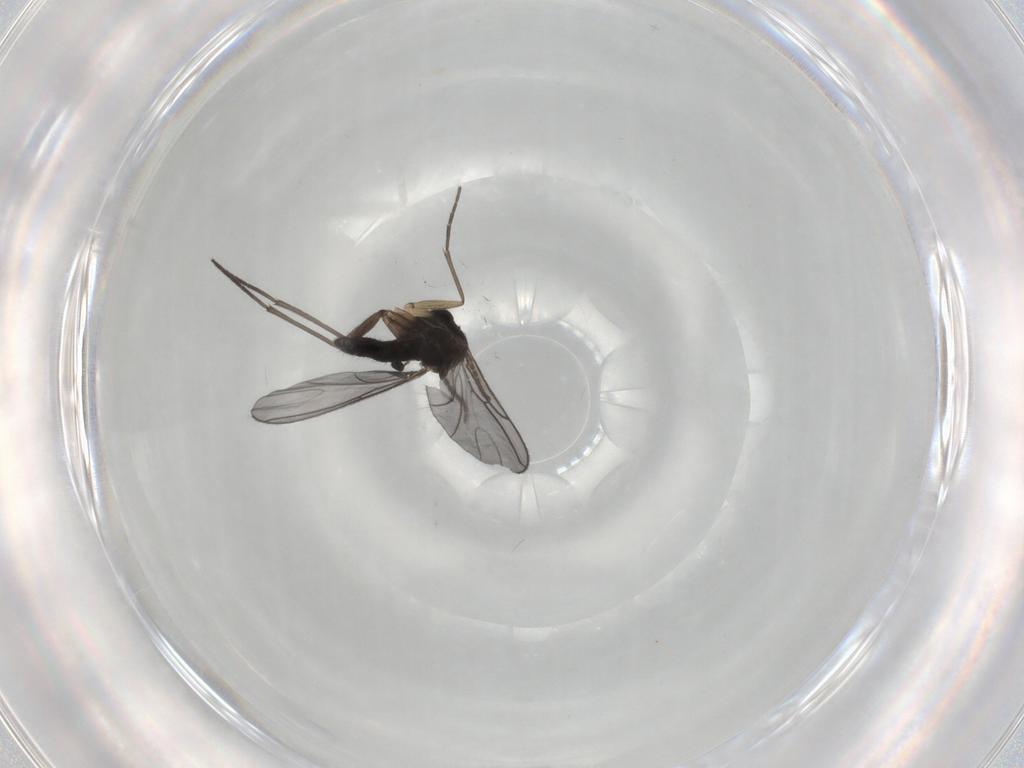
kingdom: Animalia
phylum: Arthropoda
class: Insecta
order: Diptera
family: Sciaridae
